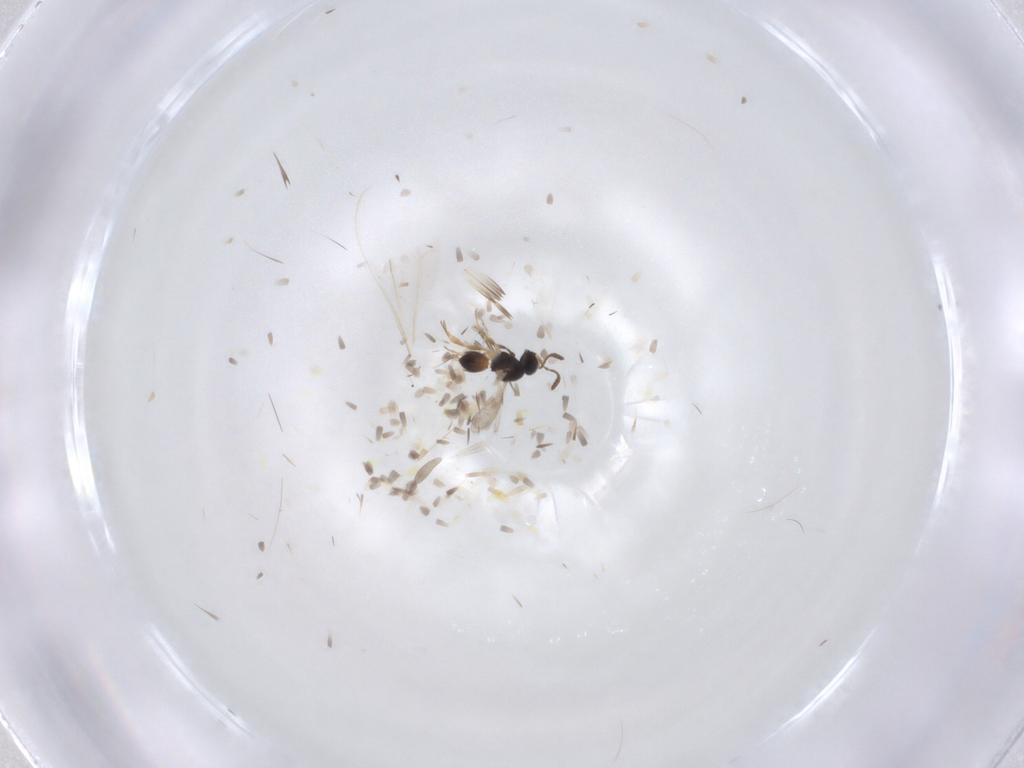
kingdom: Animalia
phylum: Arthropoda
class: Insecta
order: Hymenoptera
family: Scelionidae
